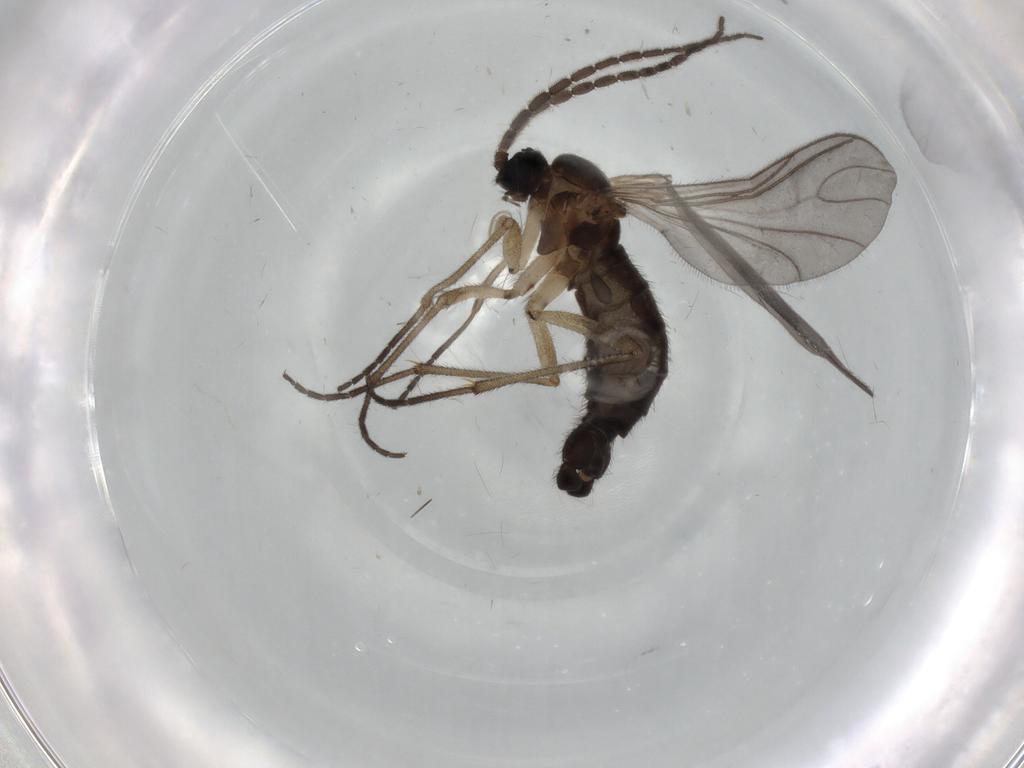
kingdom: Animalia
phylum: Arthropoda
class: Insecta
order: Diptera
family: Sciaridae
